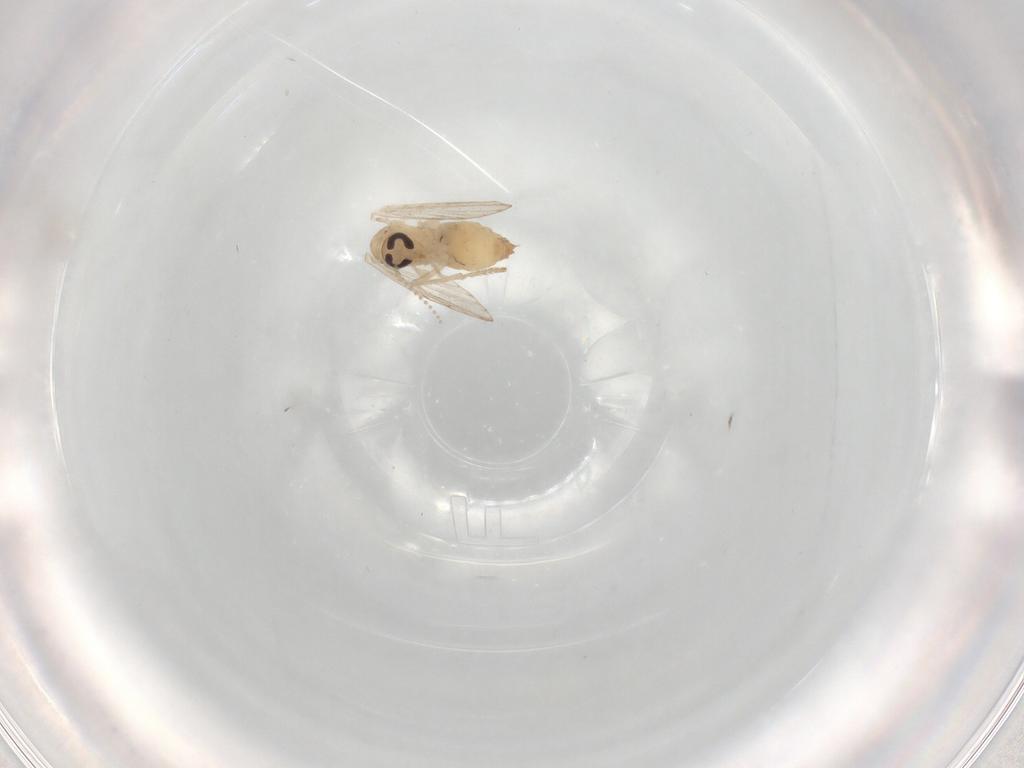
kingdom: Animalia
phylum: Arthropoda
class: Insecta
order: Diptera
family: Psychodidae
